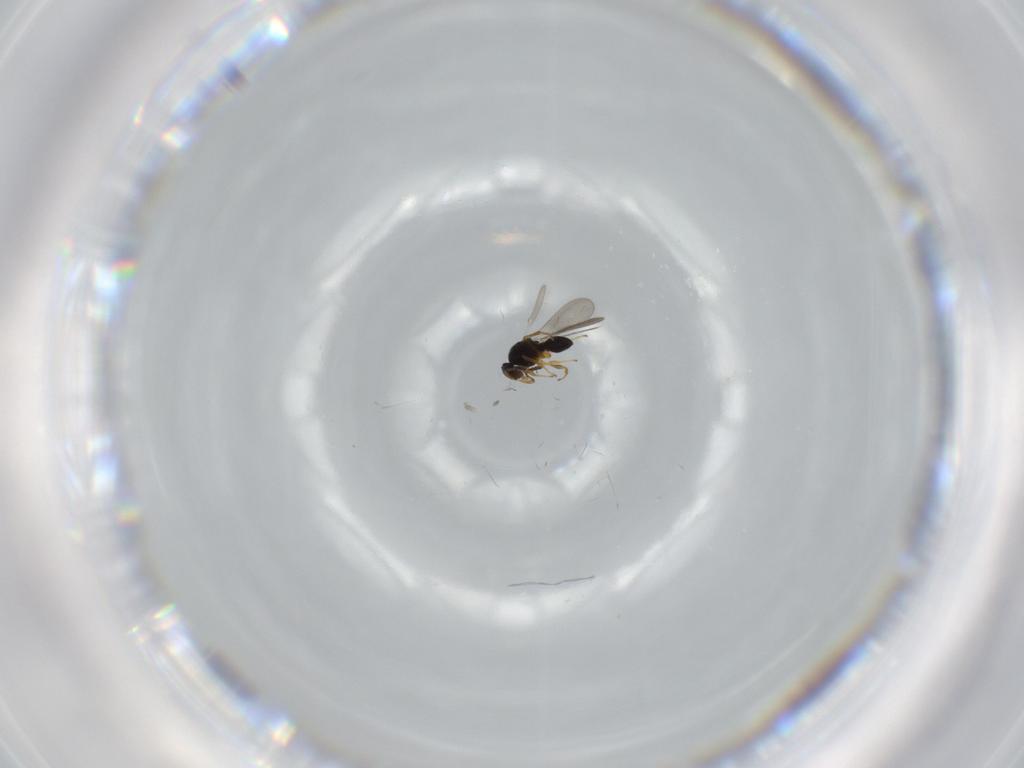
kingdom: Animalia
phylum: Arthropoda
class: Insecta
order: Hymenoptera
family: Platygastridae
